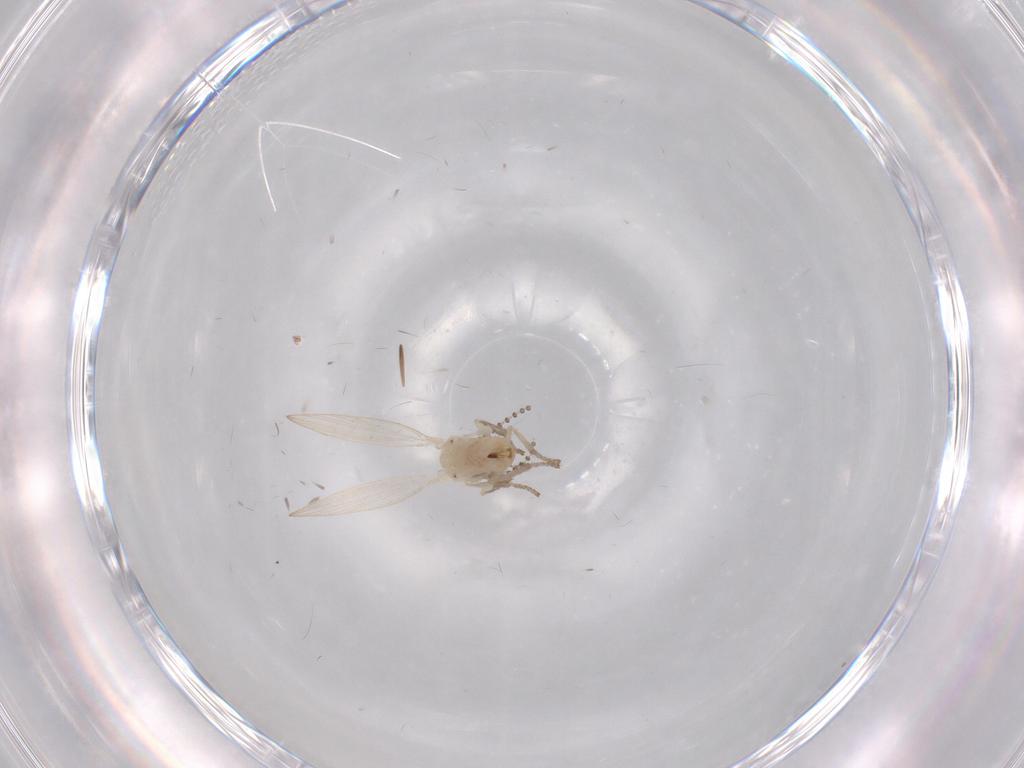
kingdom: Animalia
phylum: Arthropoda
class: Insecta
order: Diptera
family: Psychodidae
